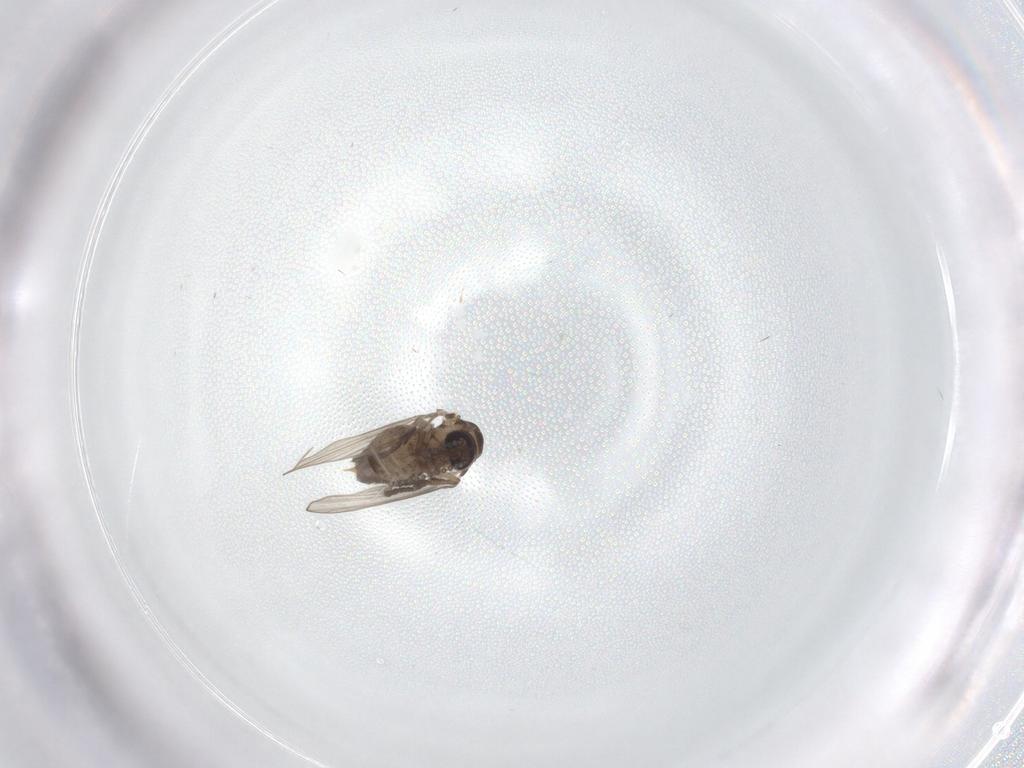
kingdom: Animalia
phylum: Arthropoda
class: Insecta
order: Diptera
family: Psychodidae
